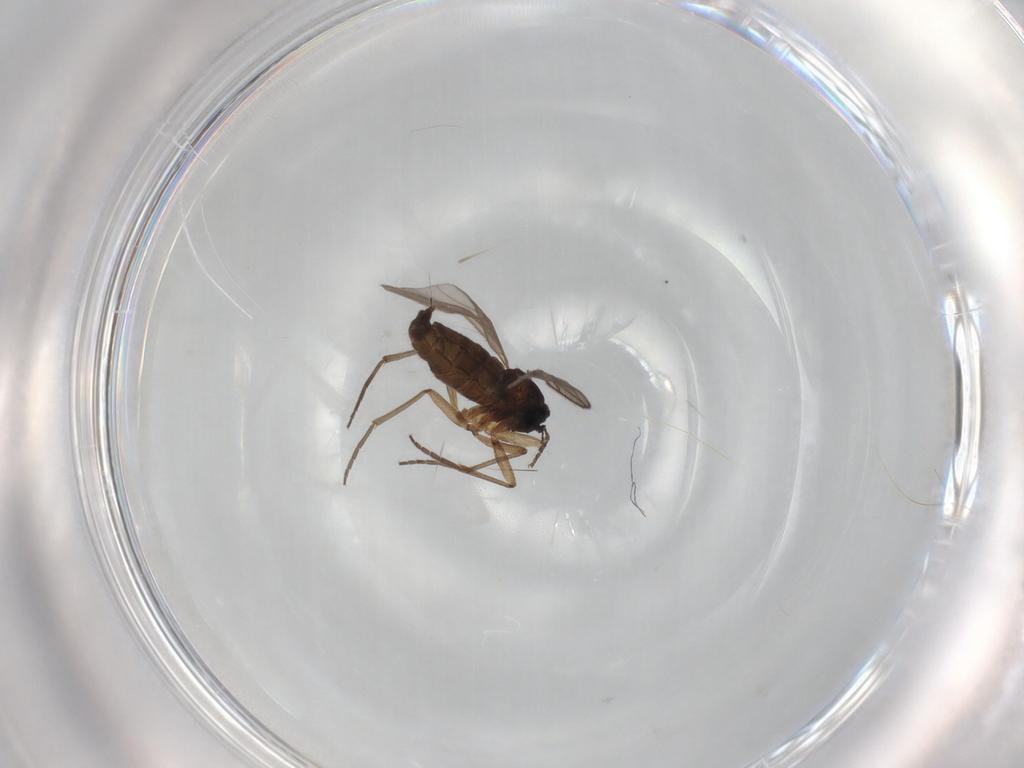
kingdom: Animalia
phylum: Arthropoda
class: Insecta
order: Diptera
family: Sciaridae
